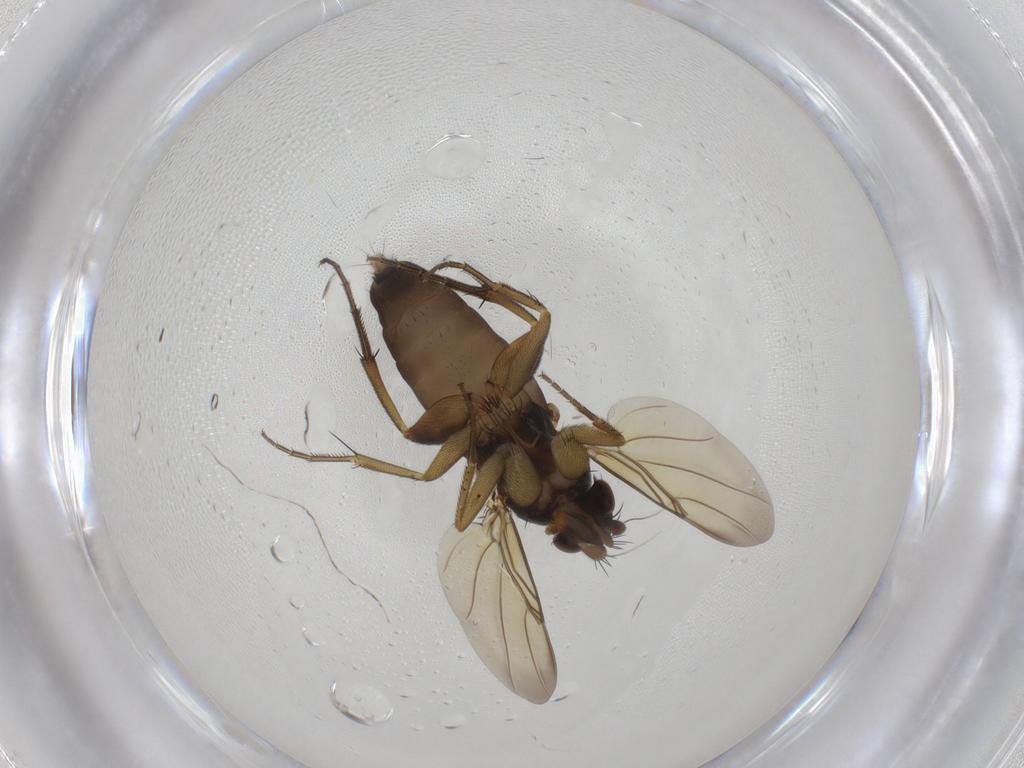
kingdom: Animalia
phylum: Arthropoda
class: Insecta
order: Diptera
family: Phoridae
